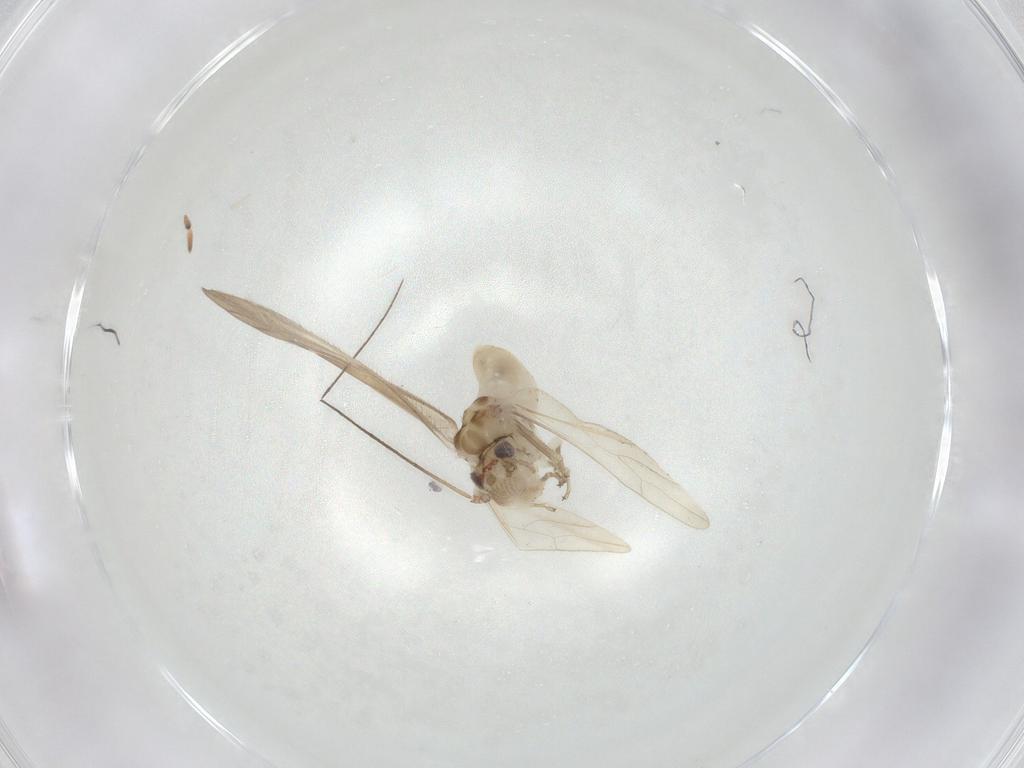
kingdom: Animalia
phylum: Arthropoda
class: Insecta
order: Psocodea
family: Caeciliusidae
